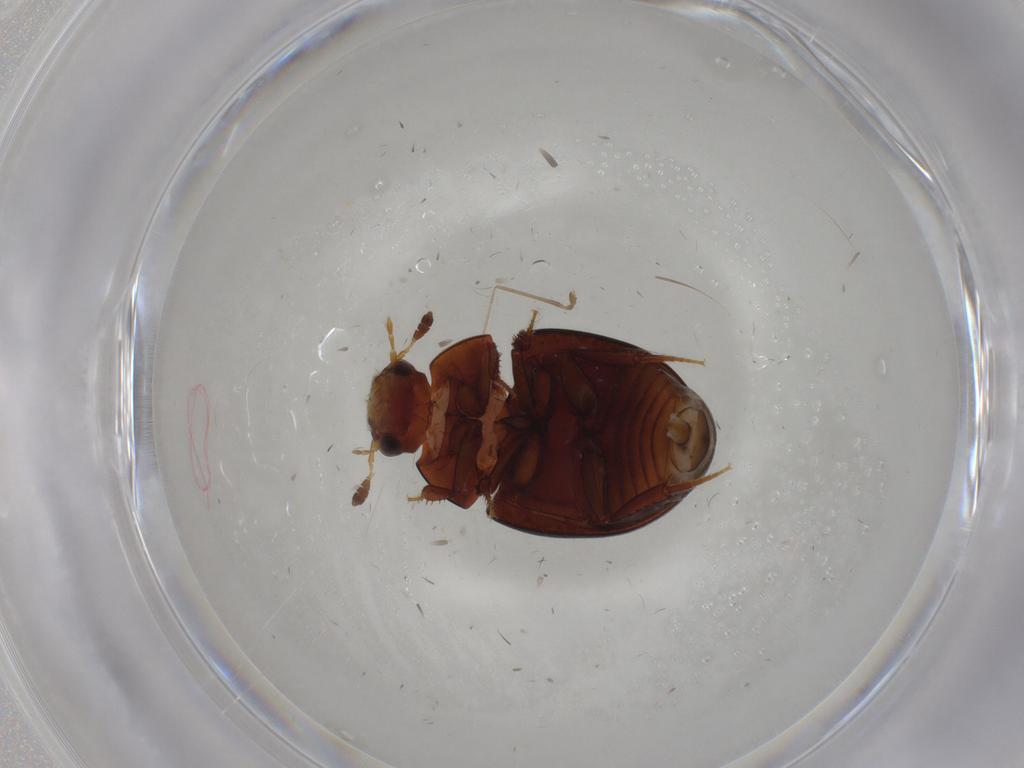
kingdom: Animalia
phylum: Arthropoda
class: Insecta
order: Coleoptera
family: Hydrophilidae
